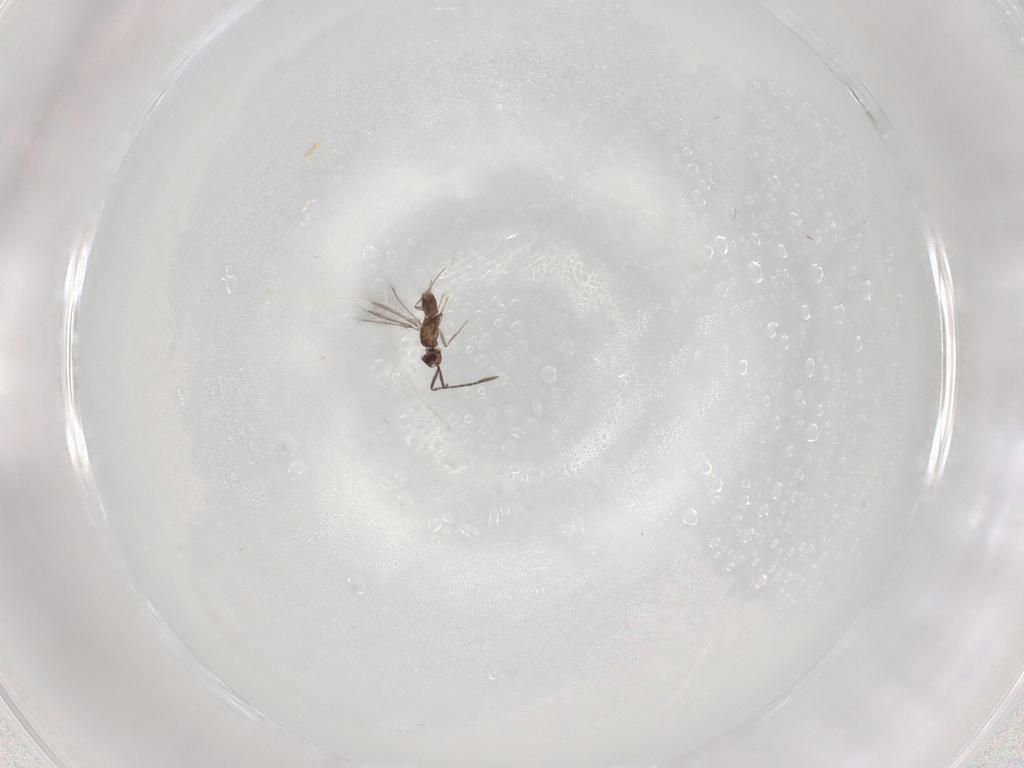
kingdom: Animalia
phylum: Arthropoda
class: Insecta
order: Hymenoptera
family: Mymaridae
